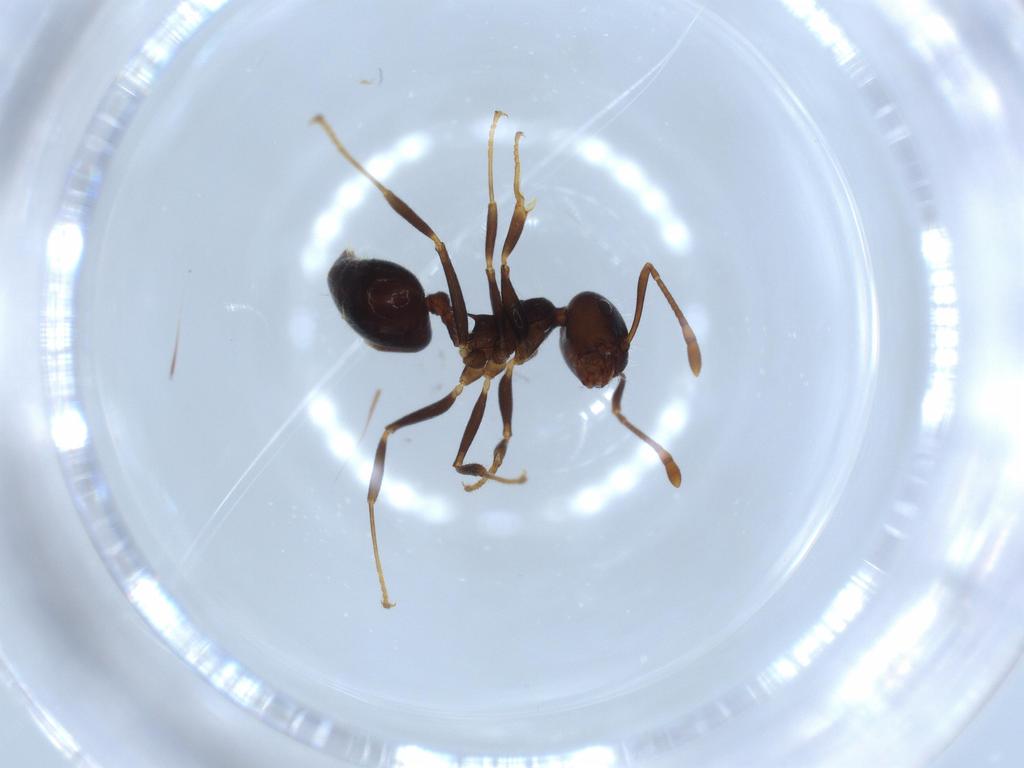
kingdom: Animalia
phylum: Arthropoda
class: Insecta
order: Hymenoptera
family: Formicidae
